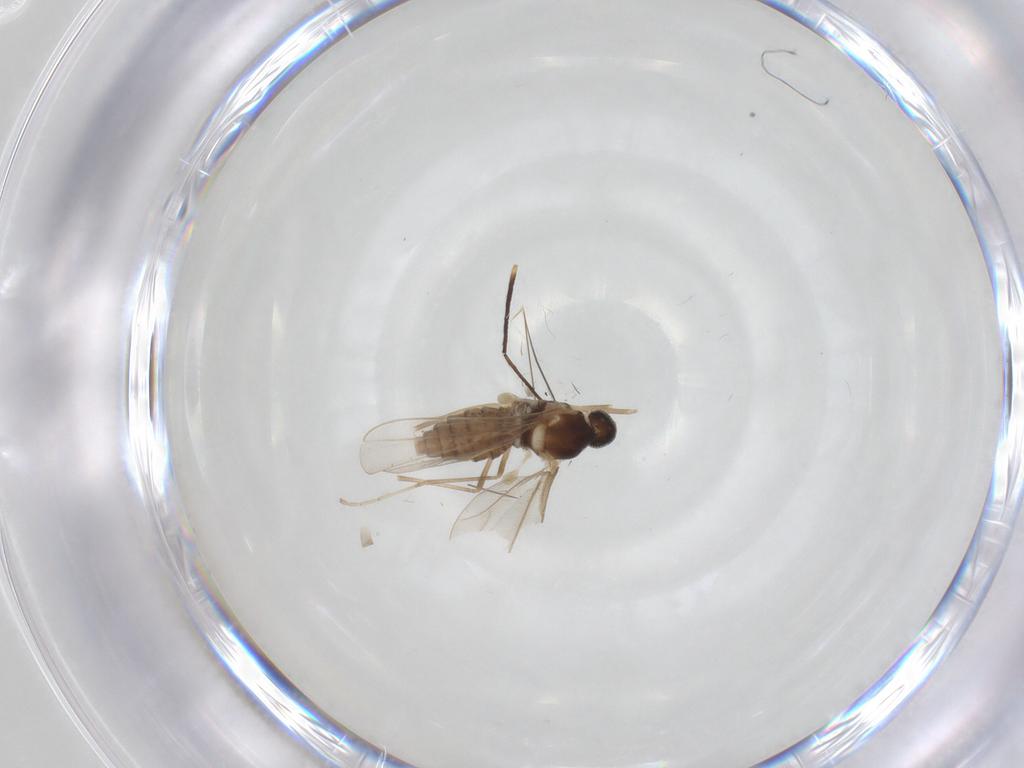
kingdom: Animalia
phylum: Arthropoda
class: Insecta
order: Diptera
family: Cecidomyiidae
